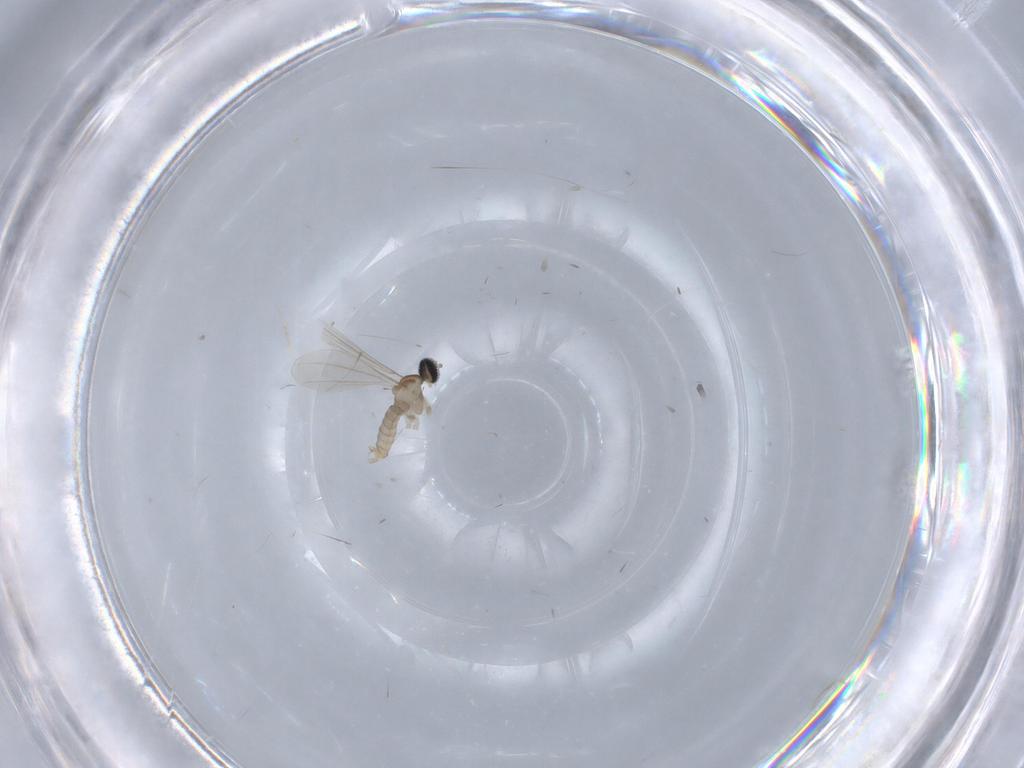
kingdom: Animalia
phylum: Arthropoda
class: Insecta
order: Diptera
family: Cecidomyiidae
